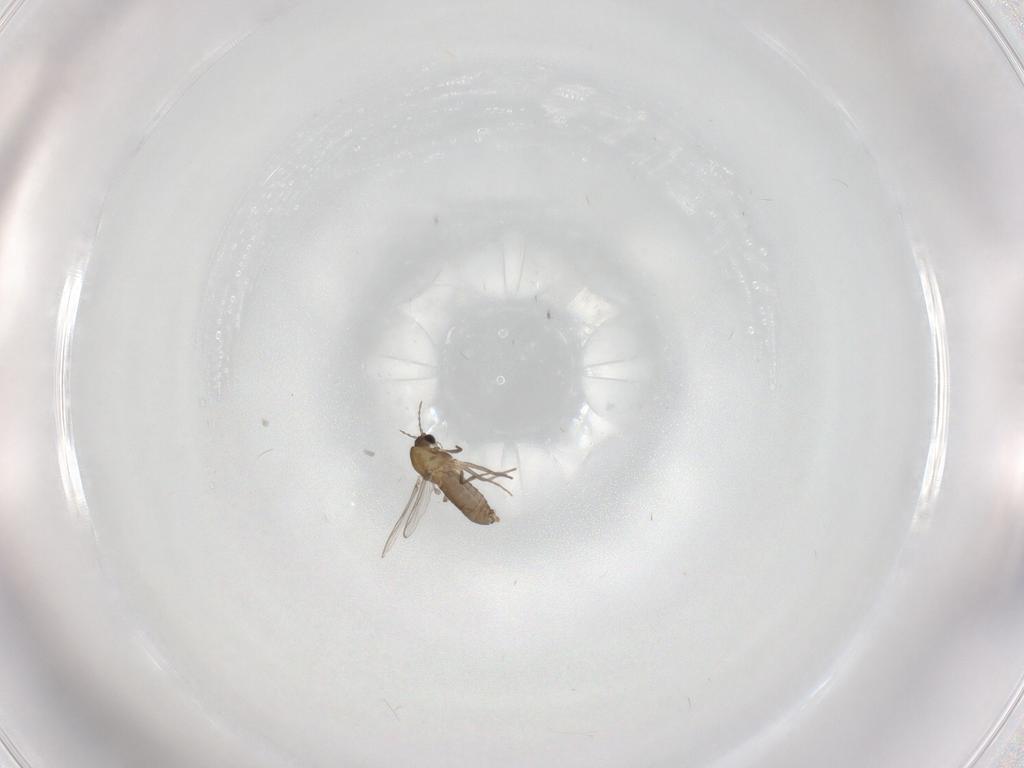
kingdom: Animalia
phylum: Arthropoda
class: Insecta
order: Diptera
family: Chironomidae
